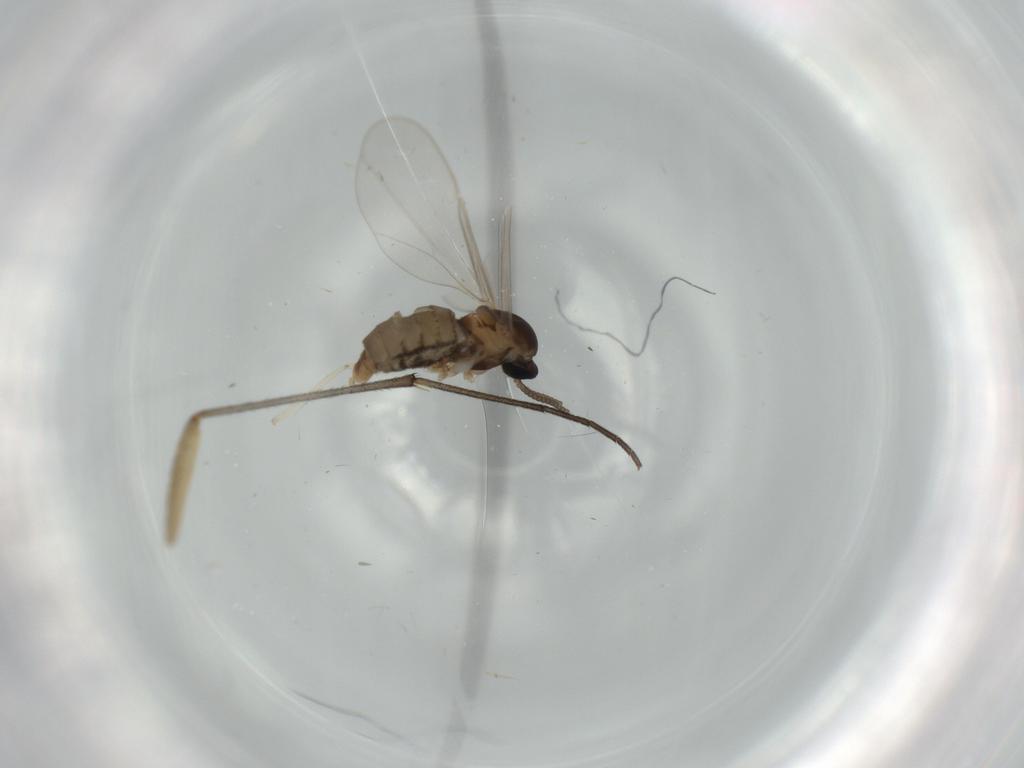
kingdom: Animalia
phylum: Arthropoda
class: Insecta
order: Diptera
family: Cecidomyiidae
